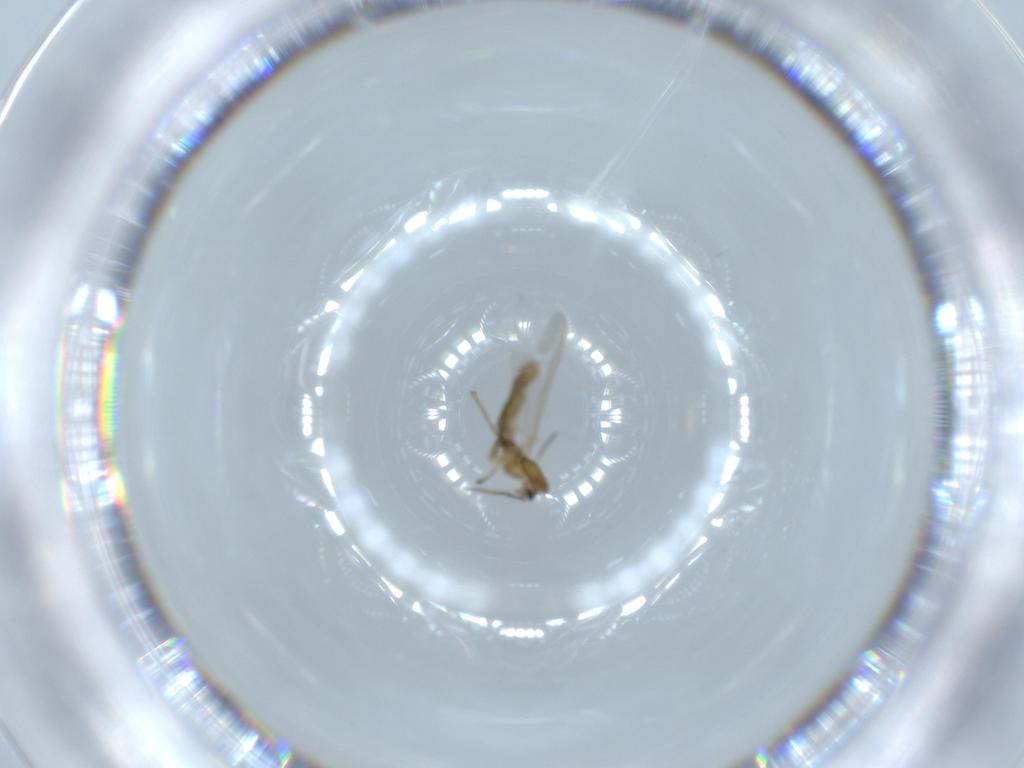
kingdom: Animalia
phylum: Arthropoda
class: Insecta
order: Diptera
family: Chironomidae
